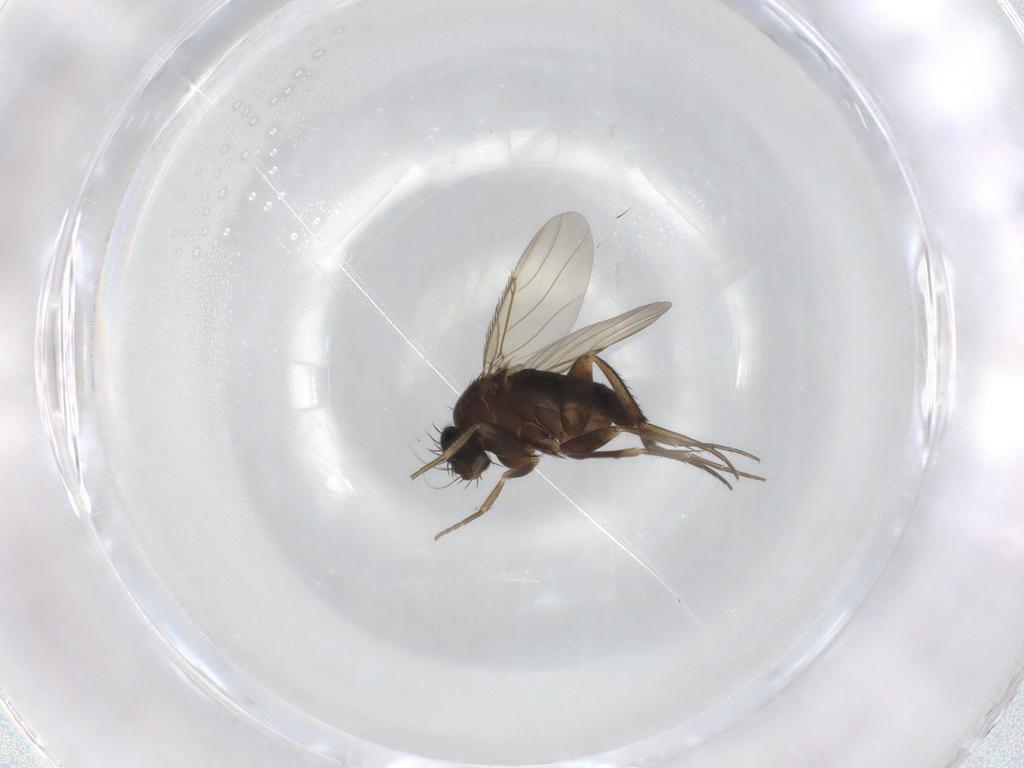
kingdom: Animalia
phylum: Arthropoda
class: Insecta
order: Diptera
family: Phoridae
